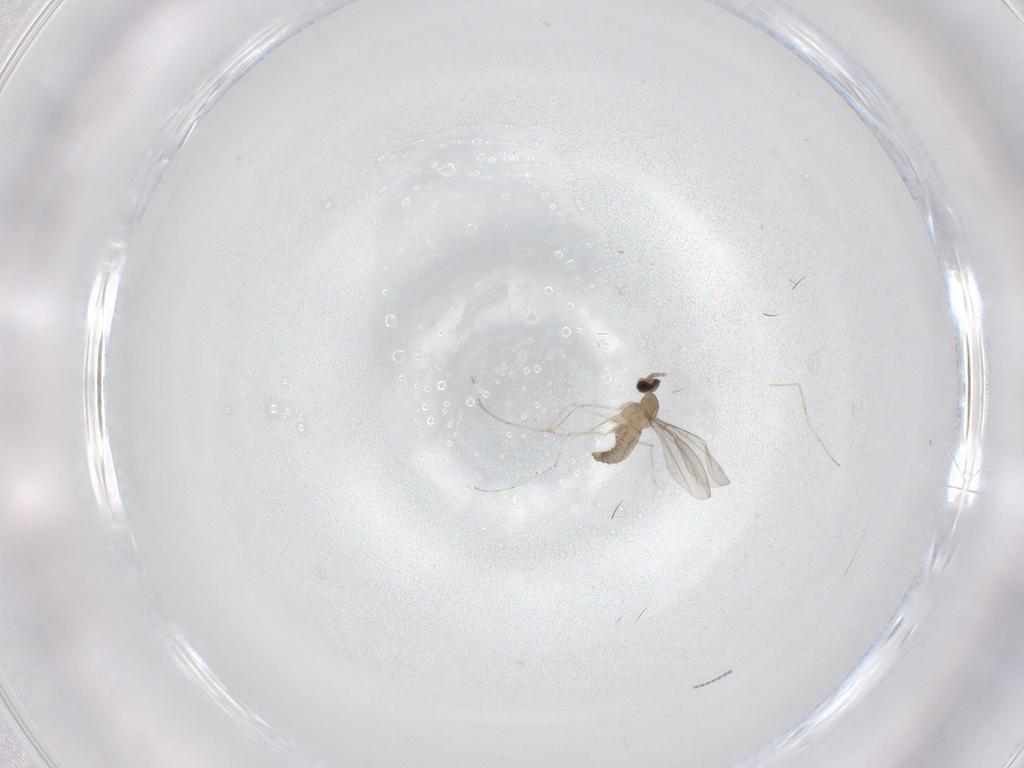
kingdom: Animalia
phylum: Arthropoda
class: Insecta
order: Diptera
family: Cecidomyiidae
